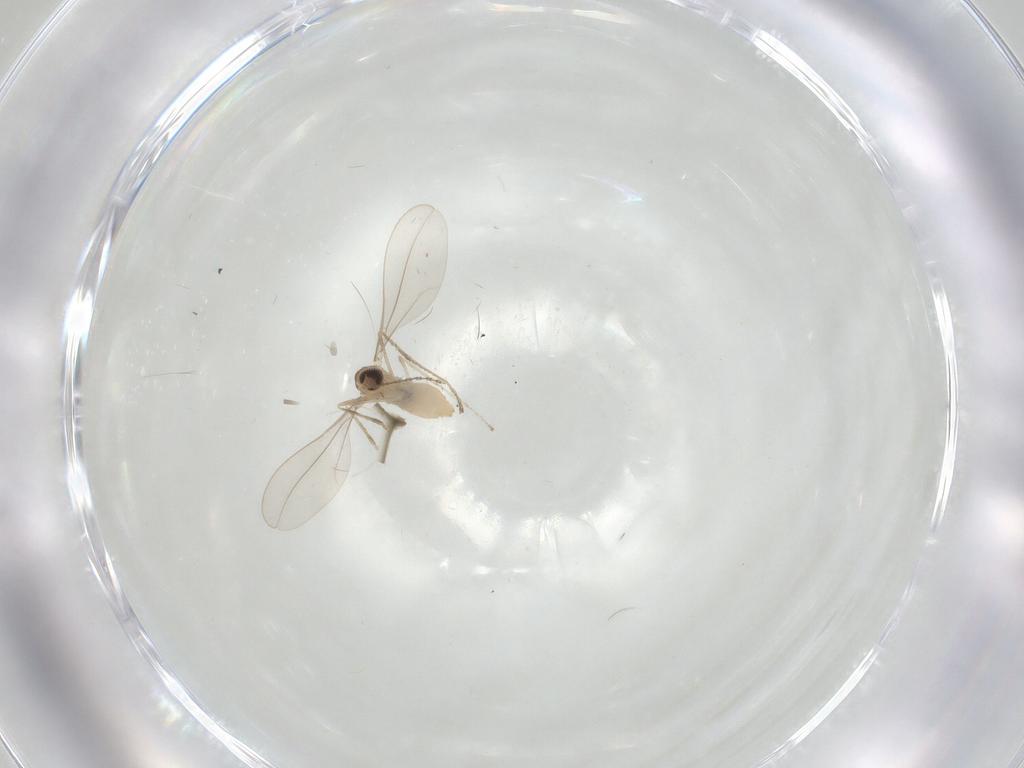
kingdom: Animalia
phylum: Arthropoda
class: Insecta
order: Diptera
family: Cecidomyiidae
